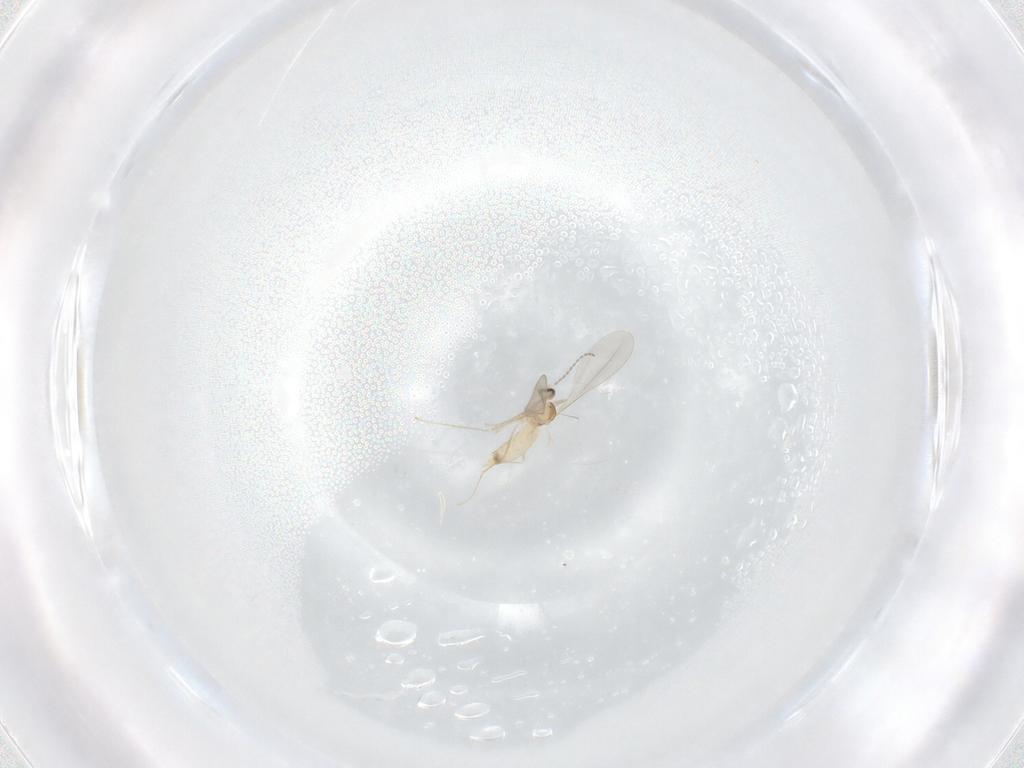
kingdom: Animalia
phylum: Arthropoda
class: Insecta
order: Diptera
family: Cecidomyiidae
